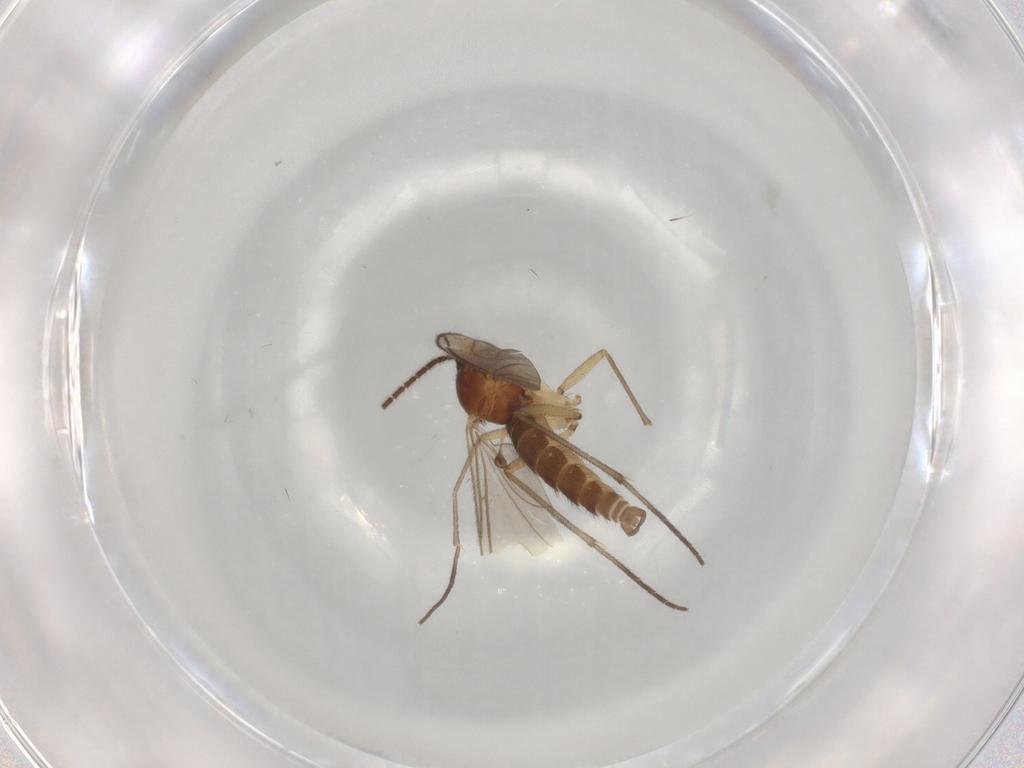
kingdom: Animalia
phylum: Arthropoda
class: Insecta
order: Diptera
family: Sciaridae
